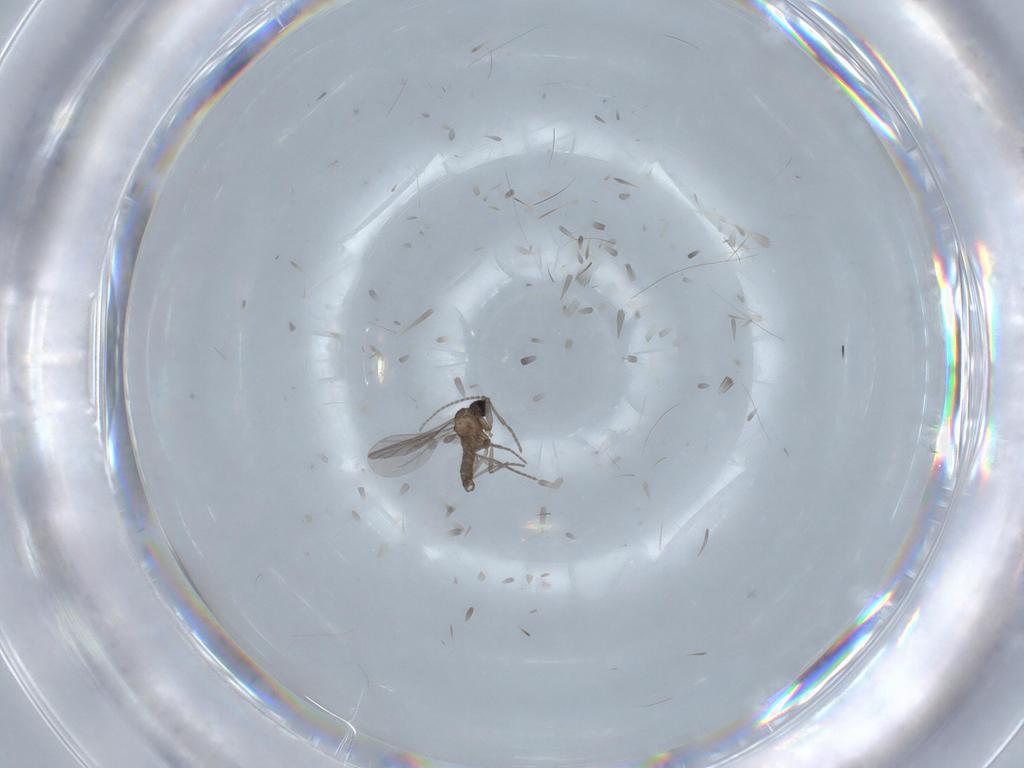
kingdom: Animalia
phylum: Arthropoda
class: Insecta
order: Diptera
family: Sciaridae
